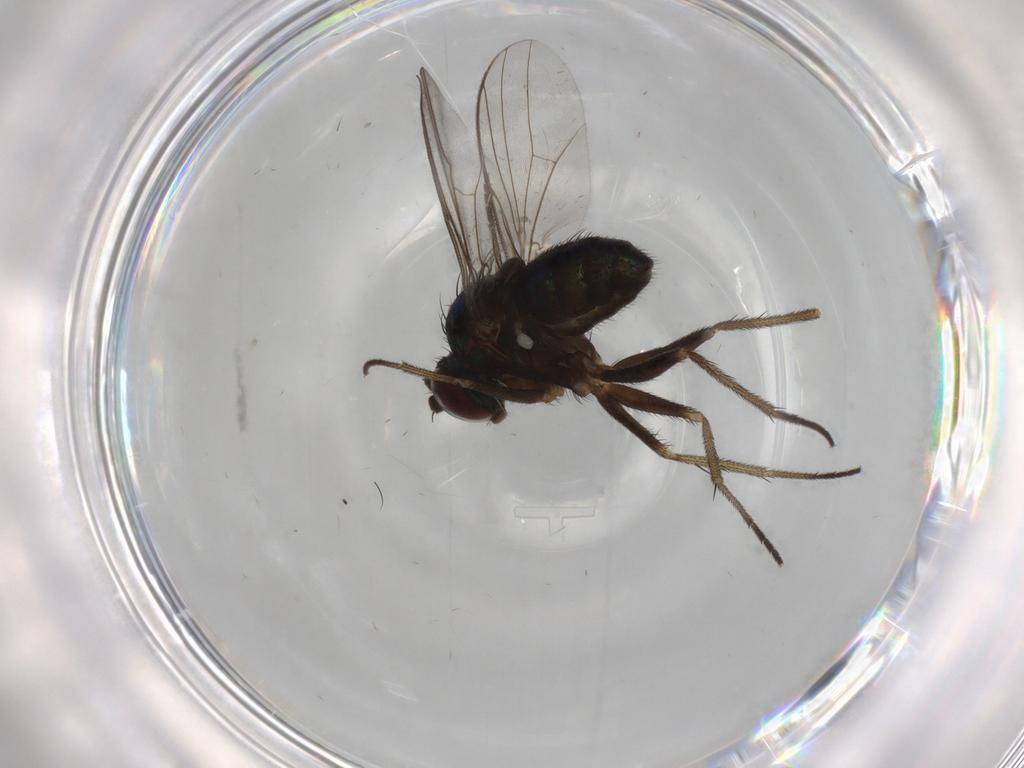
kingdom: Animalia
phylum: Arthropoda
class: Insecta
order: Diptera
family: Dolichopodidae
